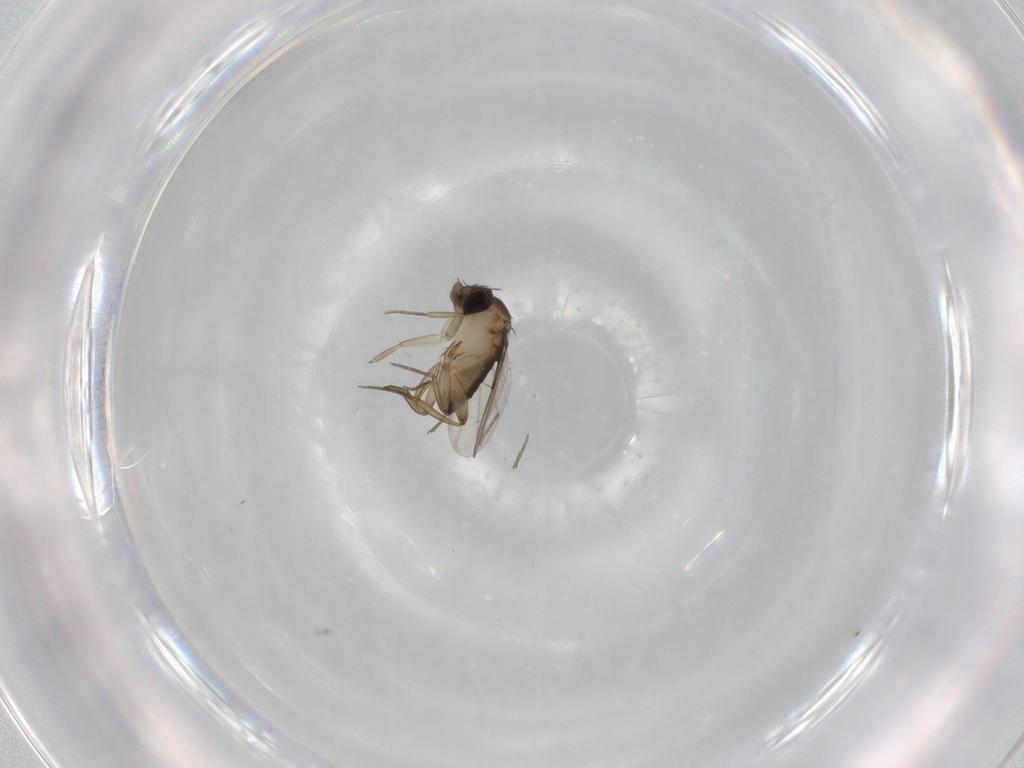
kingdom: Animalia
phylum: Arthropoda
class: Insecta
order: Diptera
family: Phoridae
